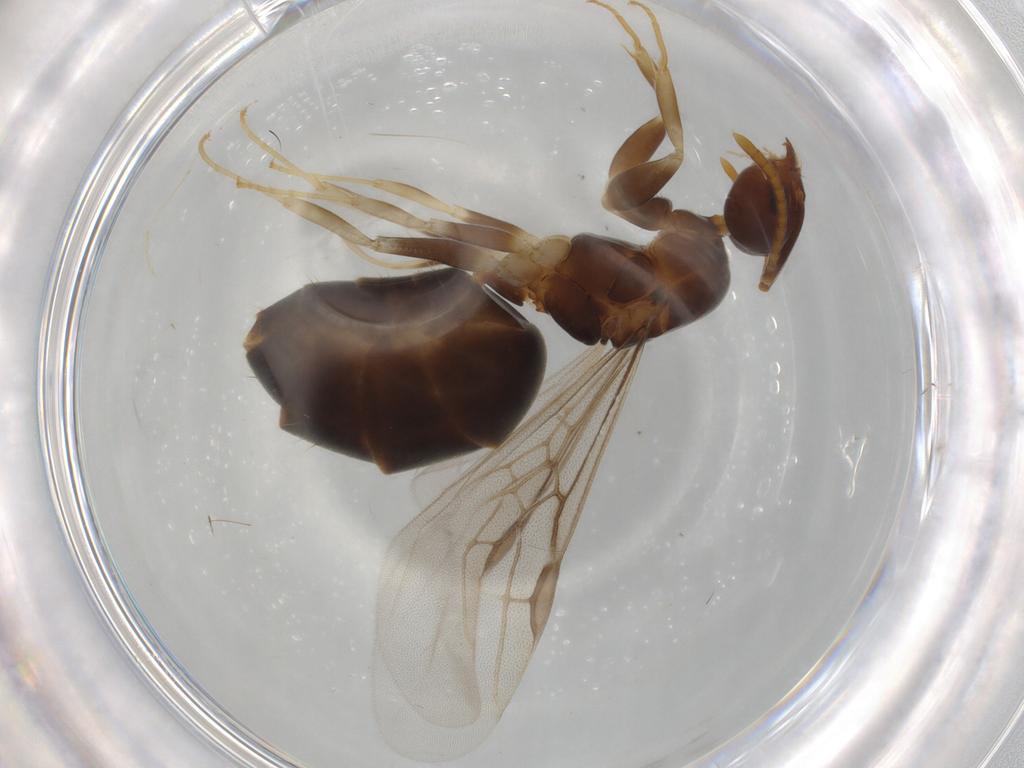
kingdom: Animalia
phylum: Arthropoda
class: Insecta
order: Hymenoptera
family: Formicidae
